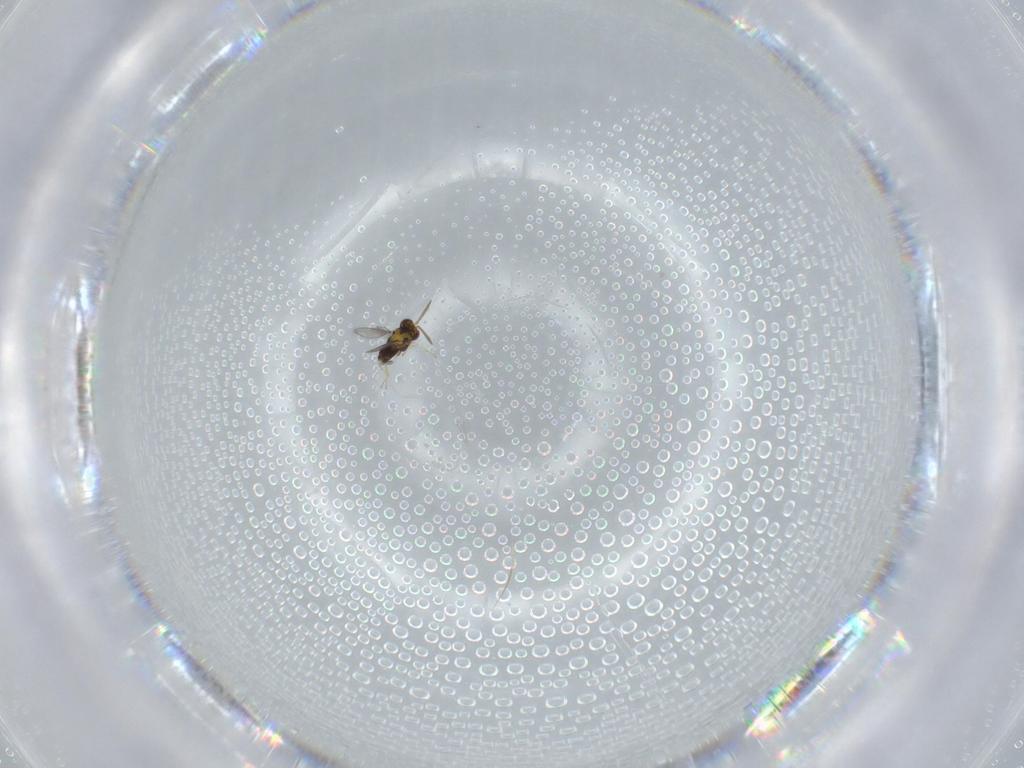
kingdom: Animalia
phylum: Arthropoda
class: Insecta
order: Hymenoptera
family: Aphelinidae
